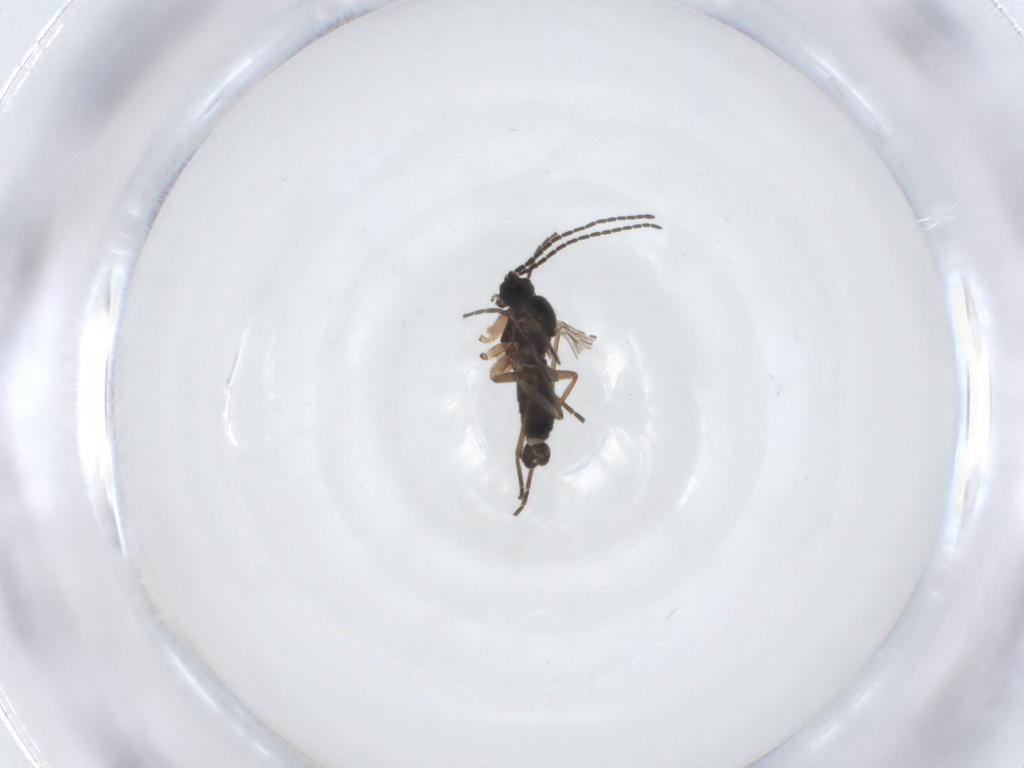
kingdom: Animalia
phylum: Arthropoda
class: Insecta
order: Diptera
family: Sciaridae
